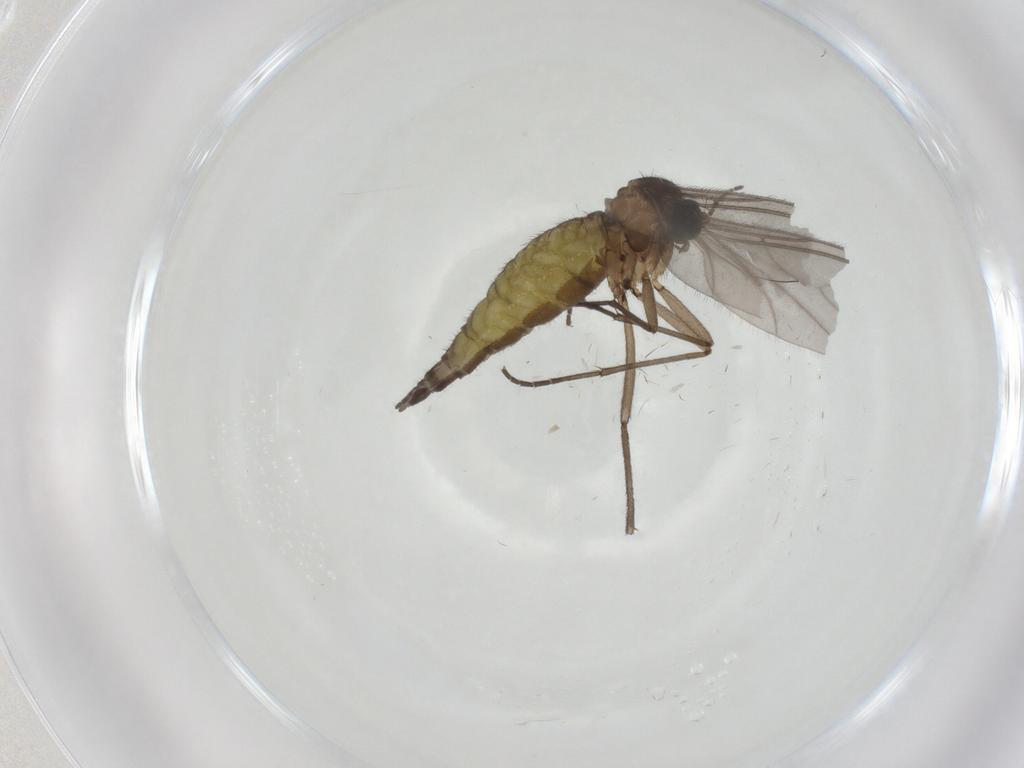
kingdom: Animalia
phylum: Arthropoda
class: Insecta
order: Diptera
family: Sciaridae
